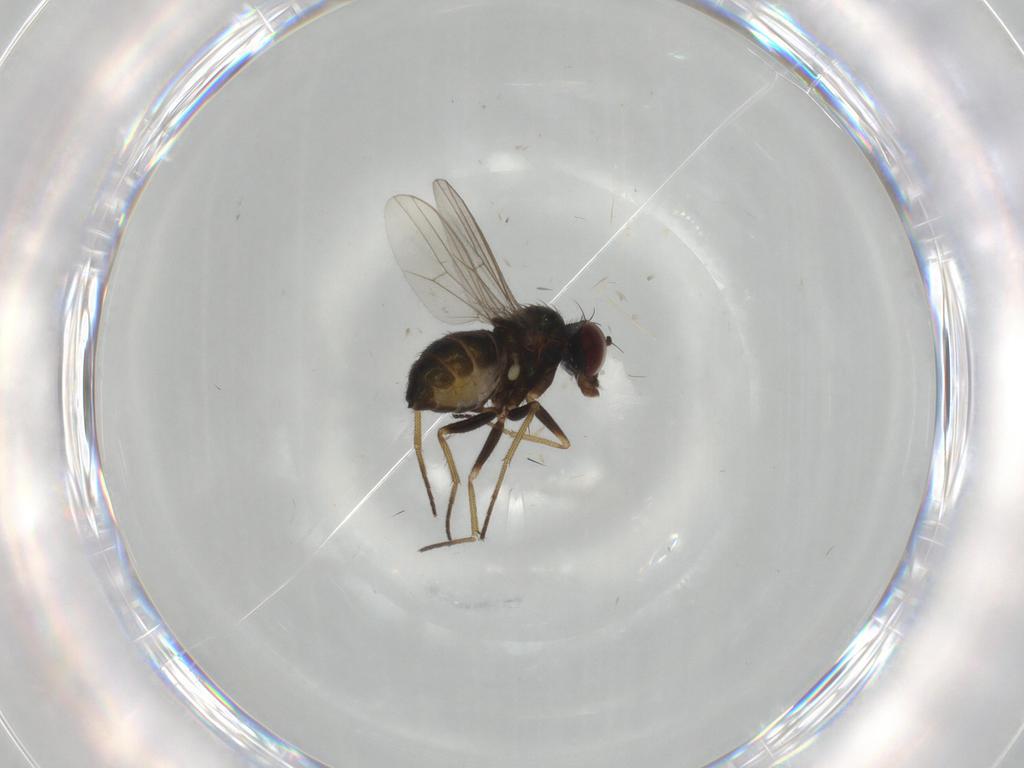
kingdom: Animalia
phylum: Arthropoda
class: Insecta
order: Diptera
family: Dolichopodidae
